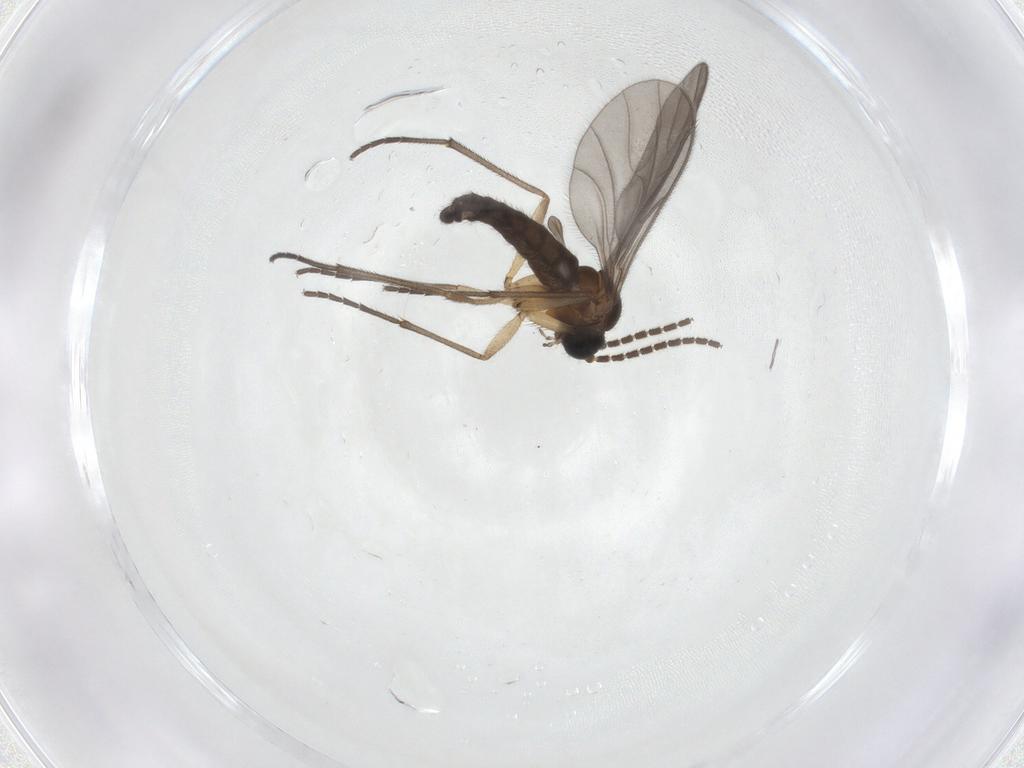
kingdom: Animalia
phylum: Arthropoda
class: Insecta
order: Diptera
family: Sciaridae
